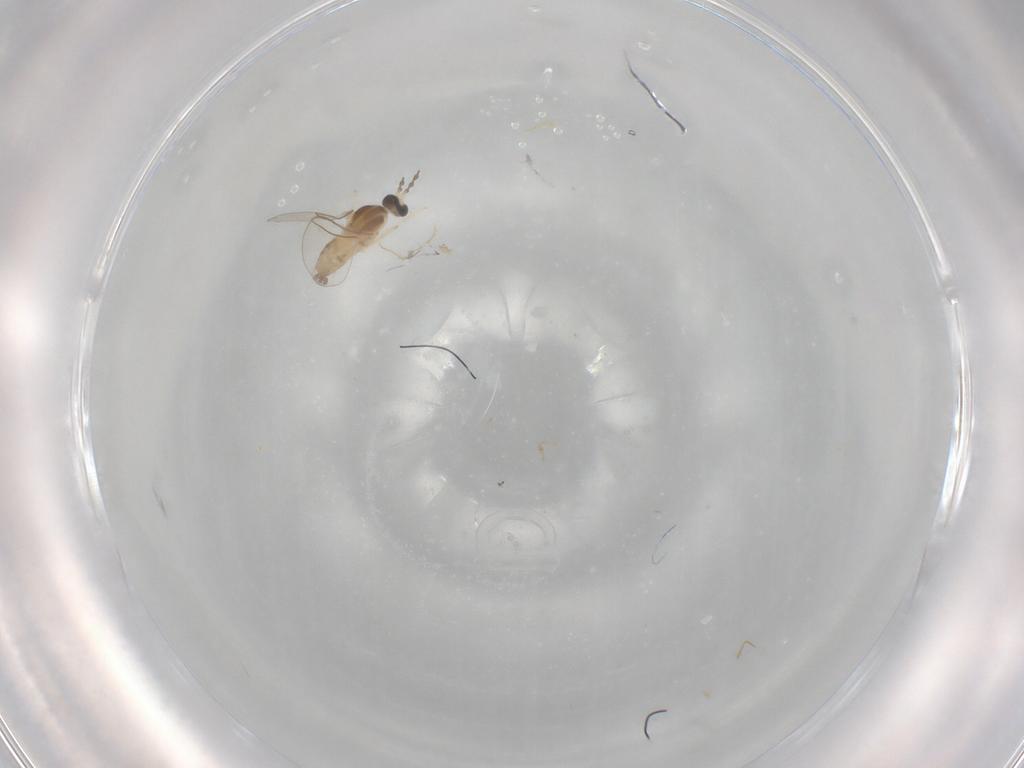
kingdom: Animalia
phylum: Arthropoda
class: Insecta
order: Diptera
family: Cecidomyiidae
